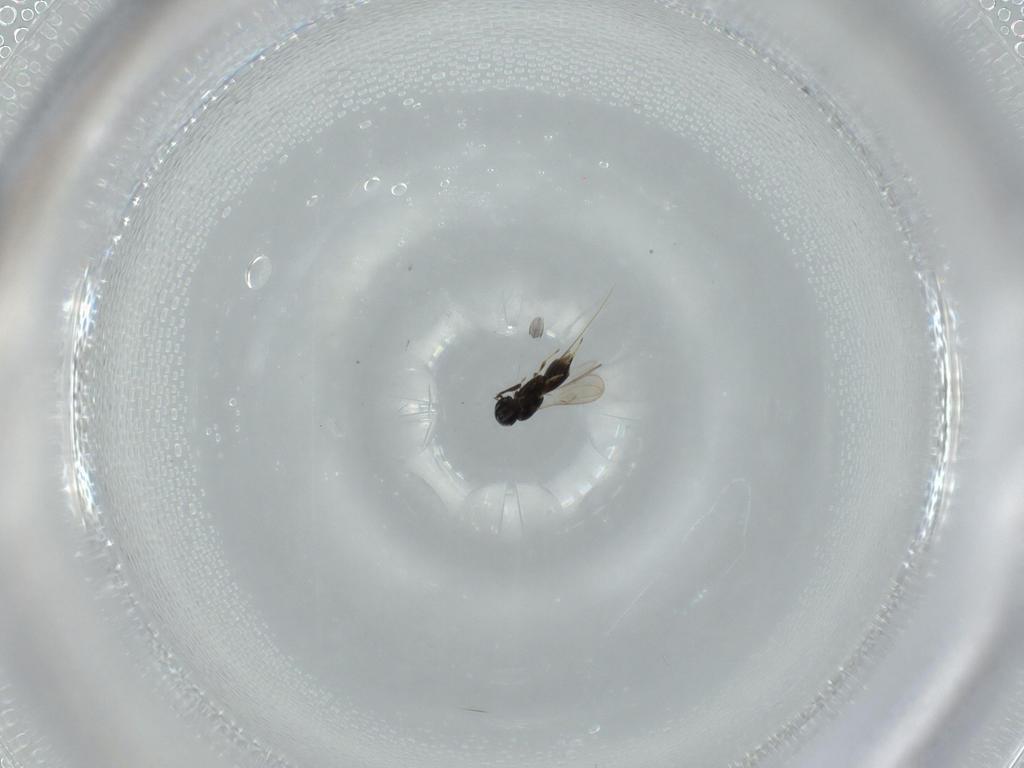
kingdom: Animalia
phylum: Arthropoda
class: Insecta
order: Hymenoptera
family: Scelionidae
